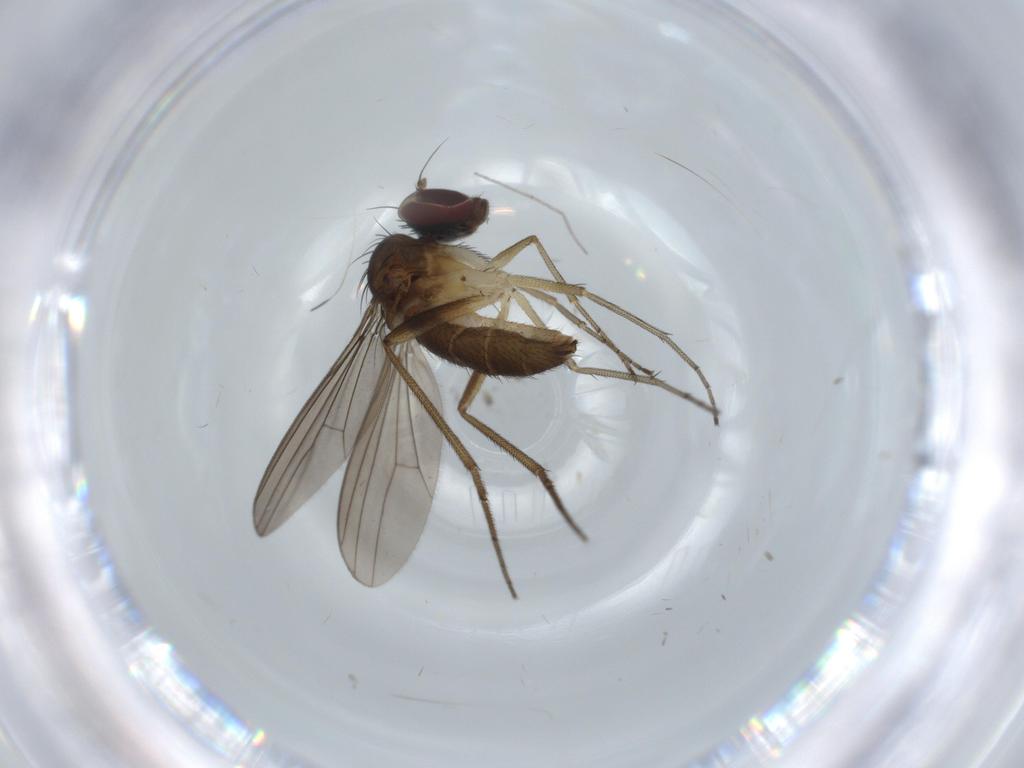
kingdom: Animalia
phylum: Arthropoda
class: Insecta
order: Diptera
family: Dolichopodidae
